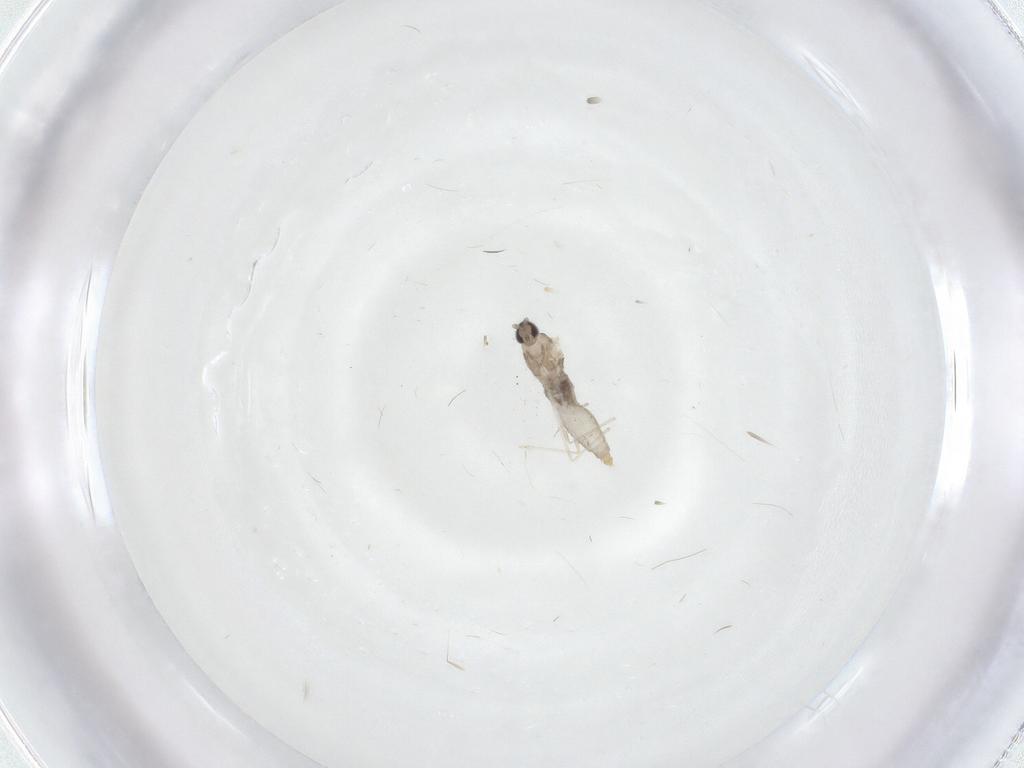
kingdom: Animalia
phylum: Arthropoda
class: Insecta
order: Diptera
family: Cecidomyiidae
